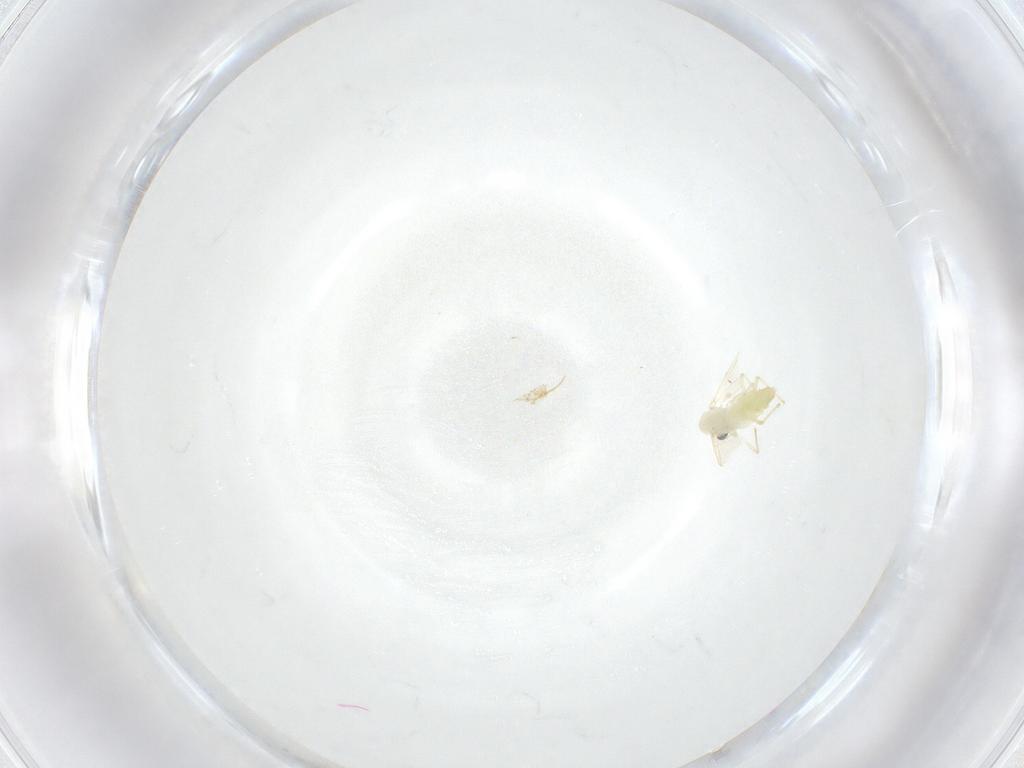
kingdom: Animalia
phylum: Arthropoda
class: Insecta
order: Diptera
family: Chironomidae
